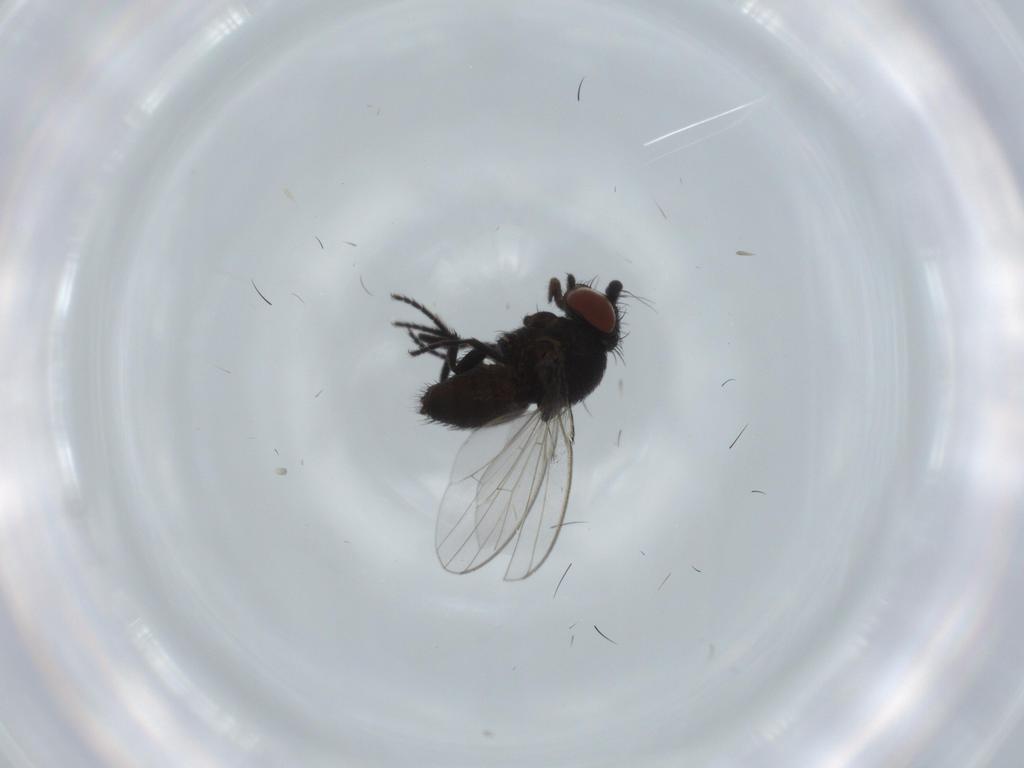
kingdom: Animalia
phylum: Arthropoda
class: Insecta
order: Diptera
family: Milichiidae
